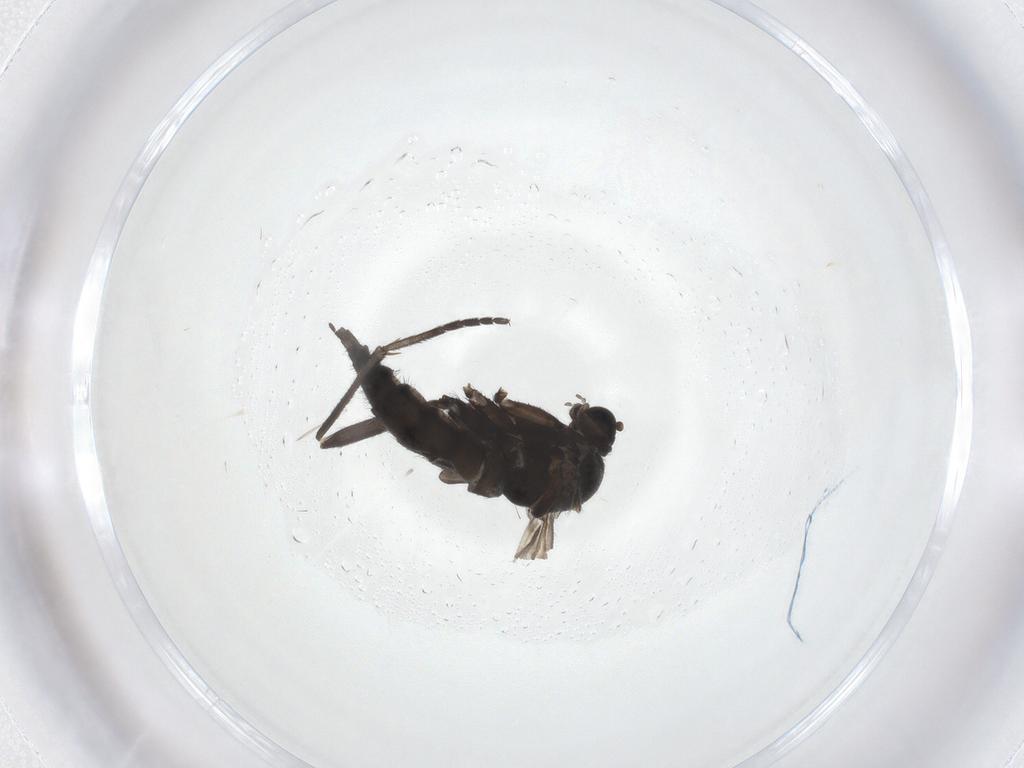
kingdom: Animalia
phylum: Arthropoda
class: Insecta
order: Diptera
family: Sciaridae
